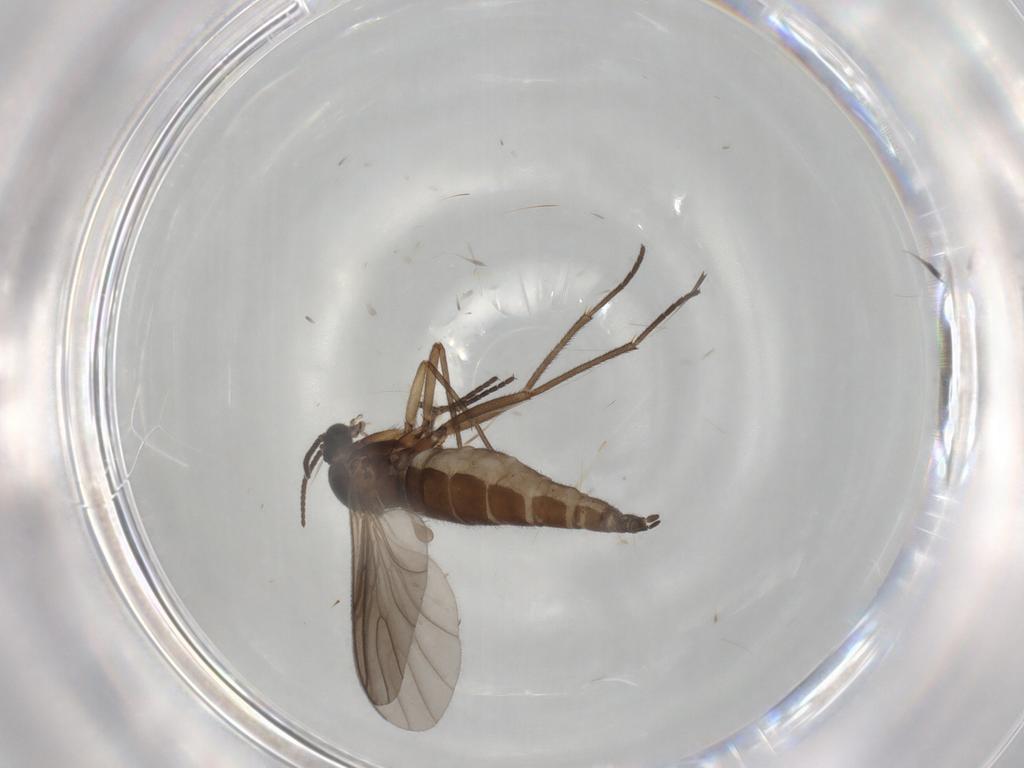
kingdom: Animalia
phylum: Arthropoda
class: Insecta
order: Diptera
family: Sciaridae
